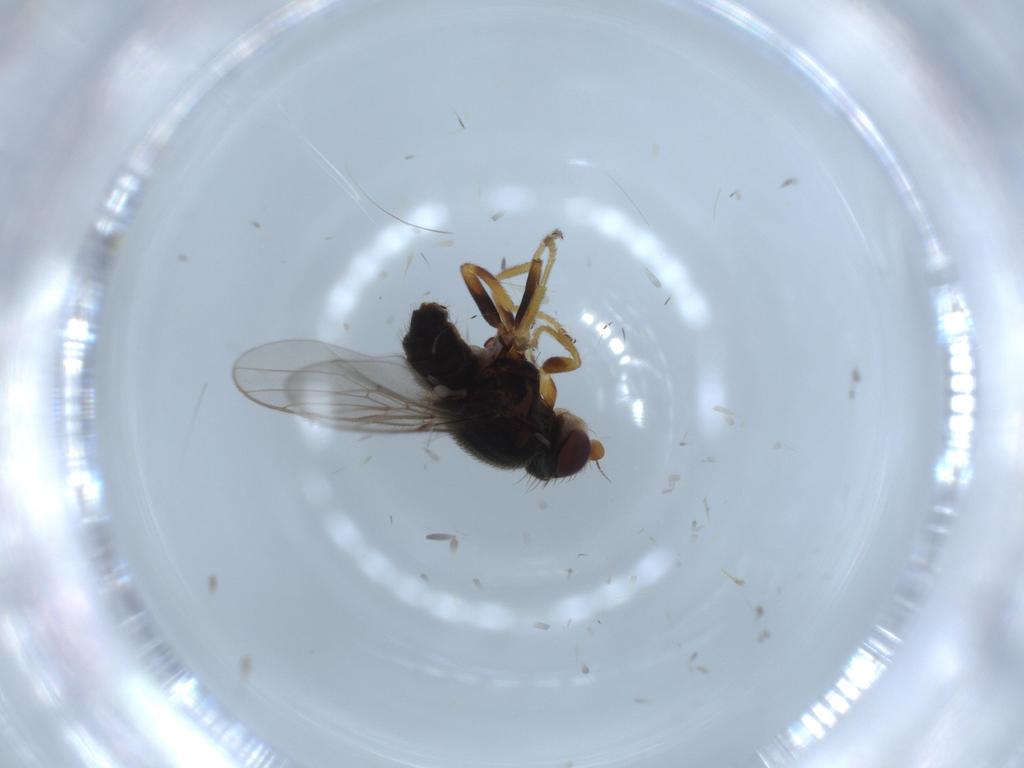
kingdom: Animalia
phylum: Arthropoda
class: Insecta
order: Diptera
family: Chloropidae
